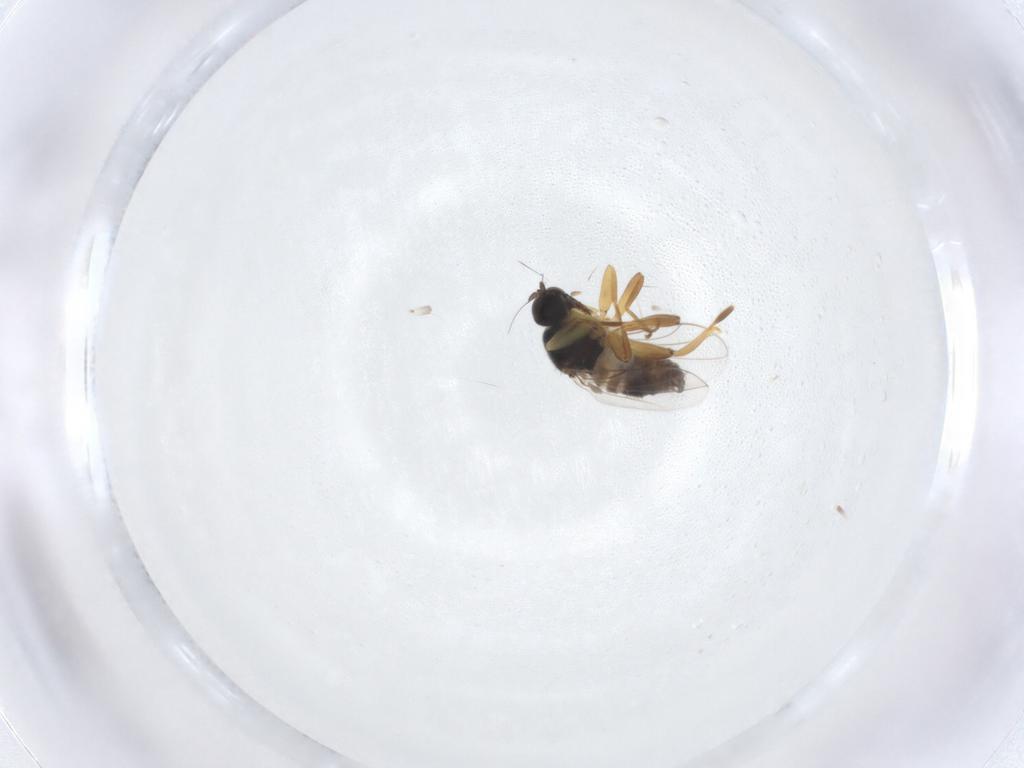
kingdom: Animalia
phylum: Arthropoda
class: Insecta
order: Diptera
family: Hybotidae
